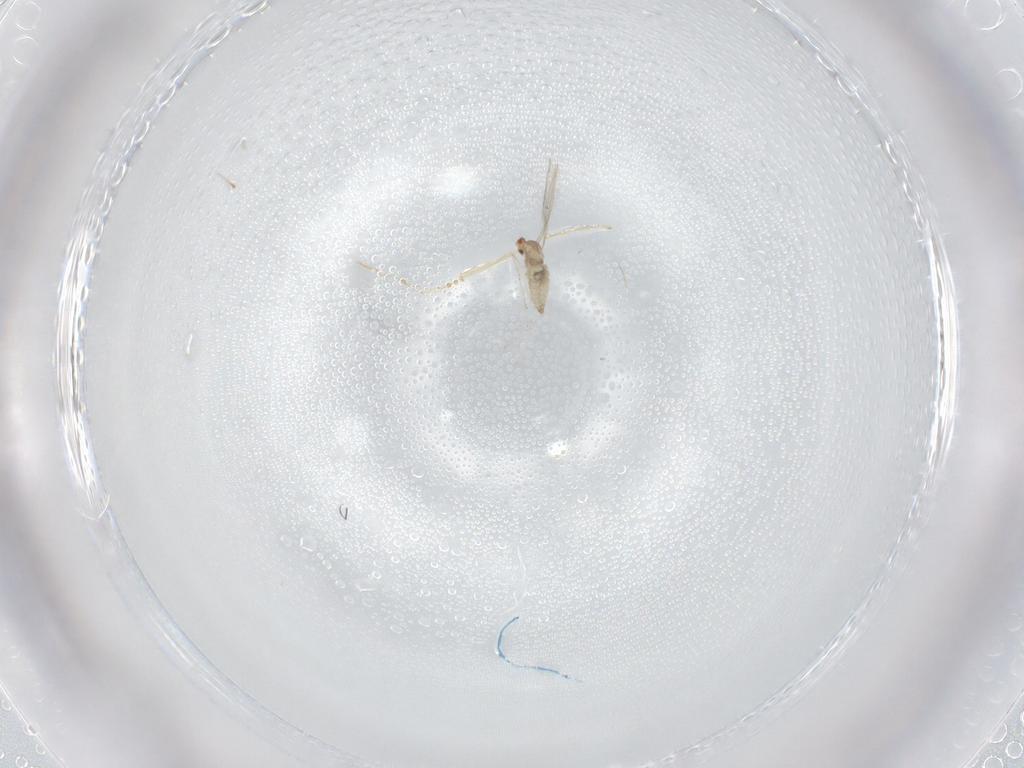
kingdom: Animalia
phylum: Arthropoda
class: Insecta
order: Diptera
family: Cecidomyiidae
